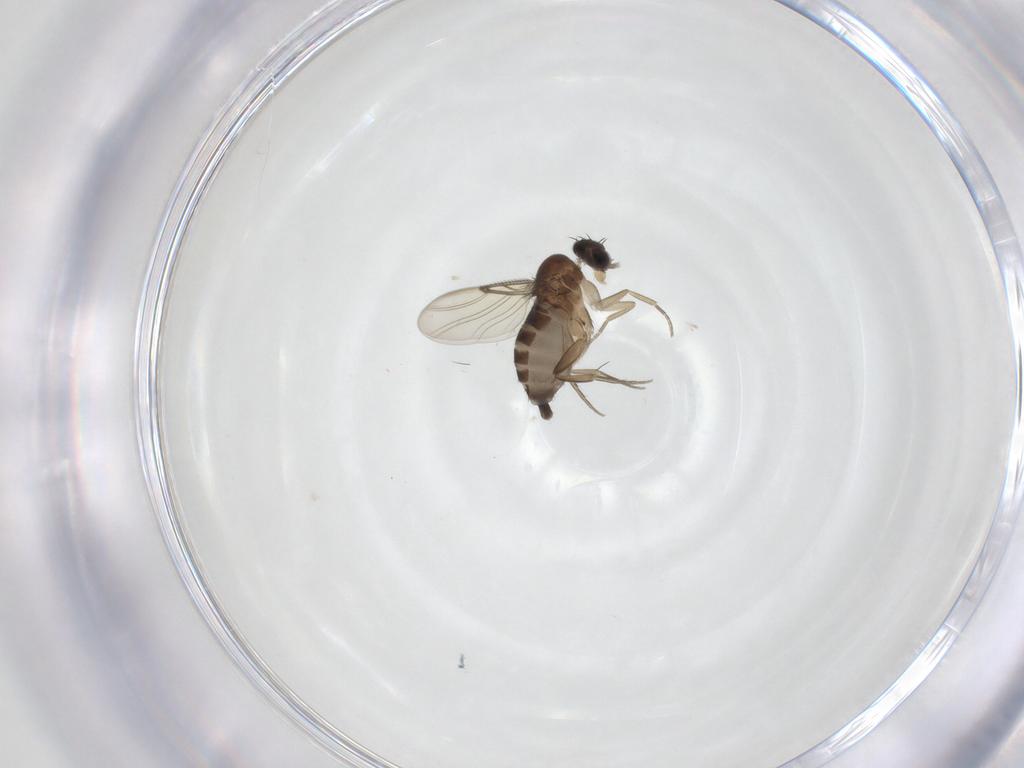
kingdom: Animalia
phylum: Arthropoda
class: Insecta
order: Diptera
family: Phoridae
